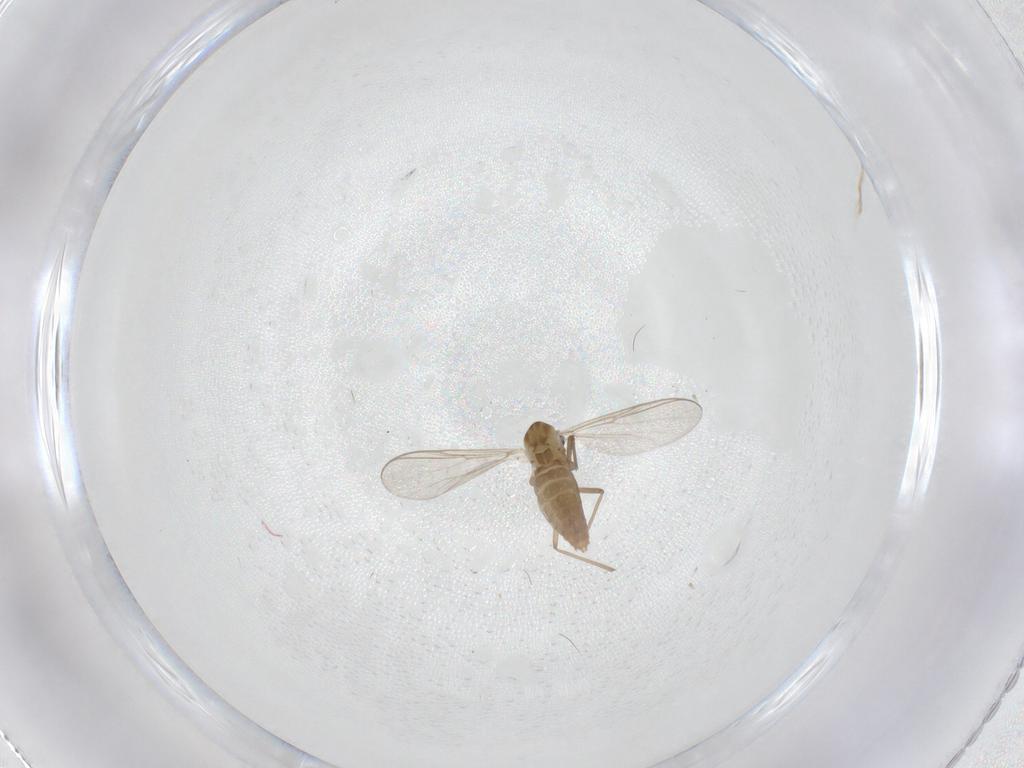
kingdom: Animalia
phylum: Arthropoda
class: Insecta
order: Diptera
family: Chironomidae
